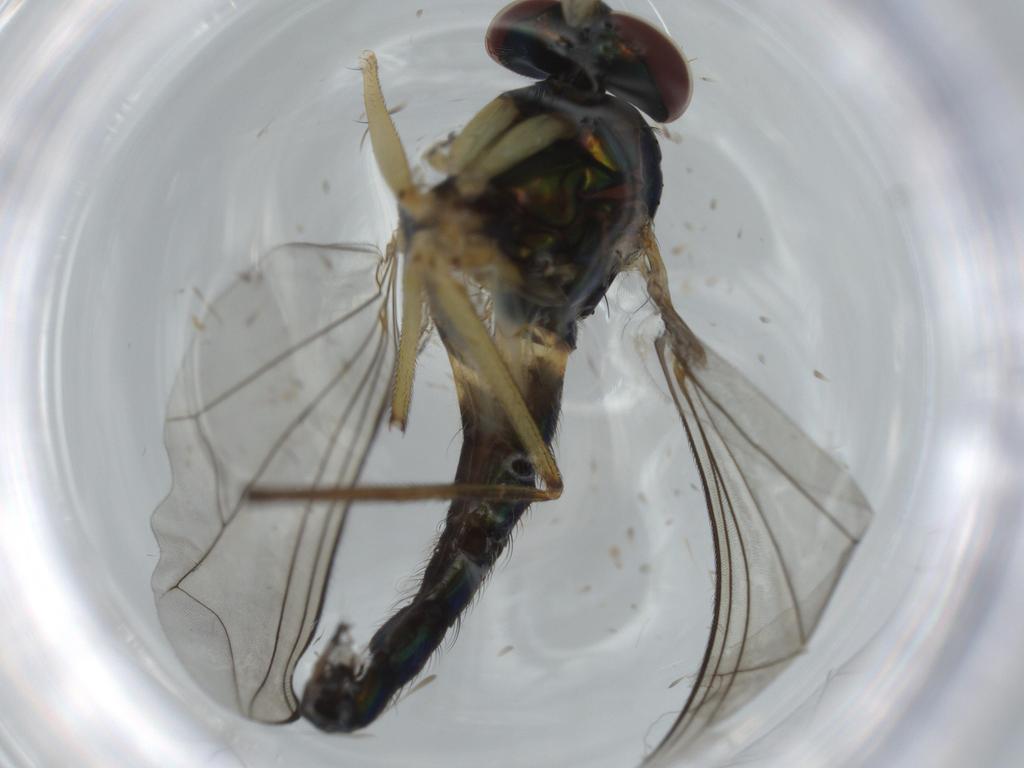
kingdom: Animalia
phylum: Arthropoda
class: Insecta
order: Diptera
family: Dolichopodidae
